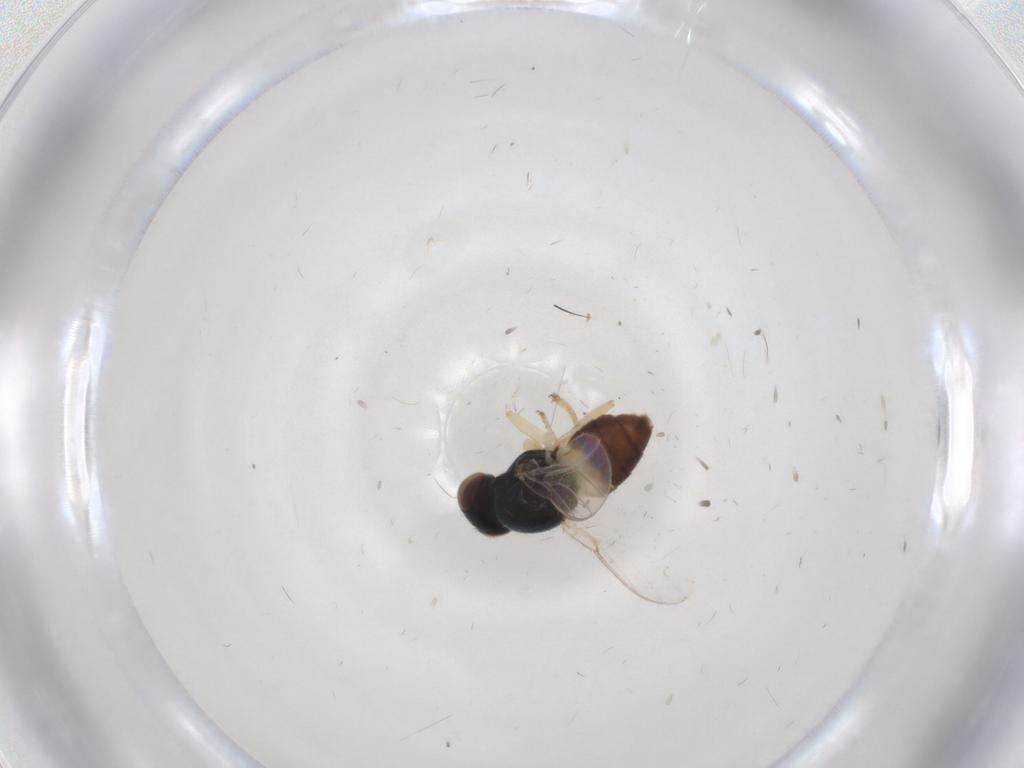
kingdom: Animalia
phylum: Arthropoda
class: Insecta
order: Diptera
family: Chloropidae
